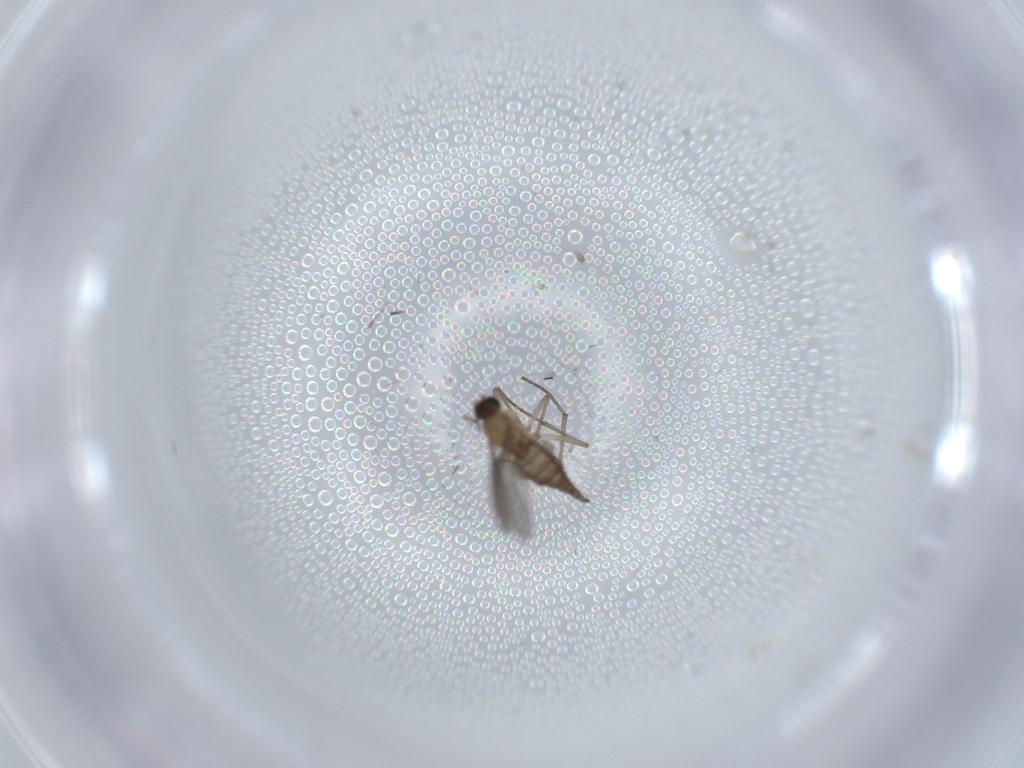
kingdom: Animalia
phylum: Arthropoda
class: Insecta
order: Diptera
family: Sciaridae
